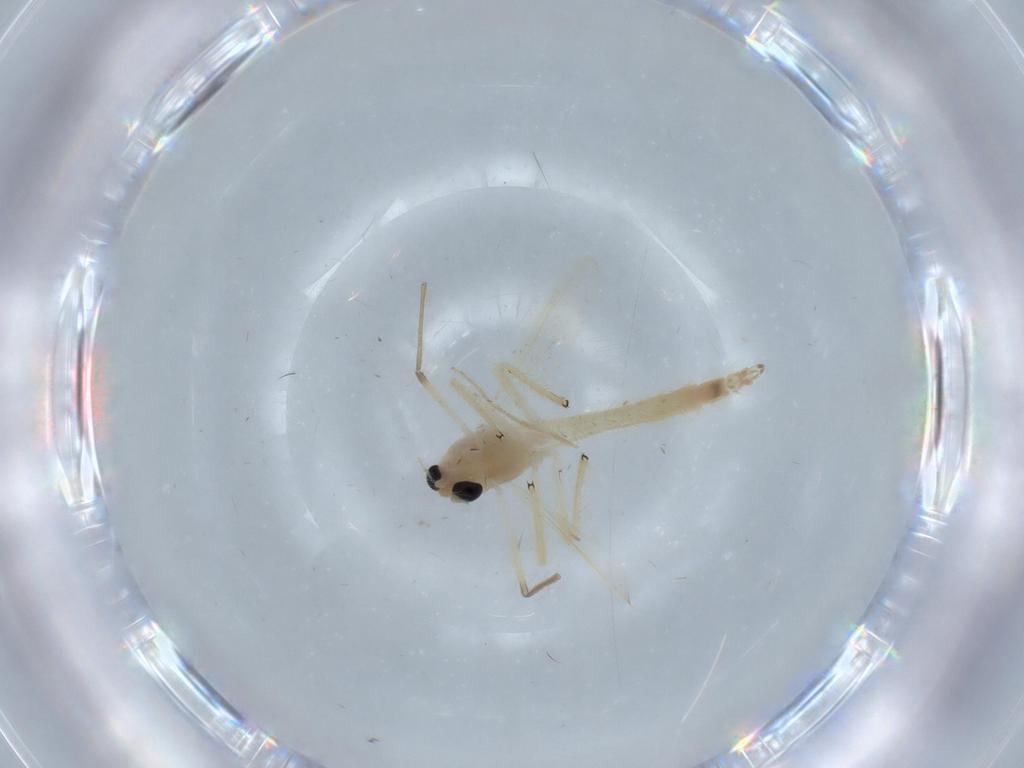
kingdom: Animalia
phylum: Arthropoda
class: Insecta
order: Diptera
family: Chironomidae
